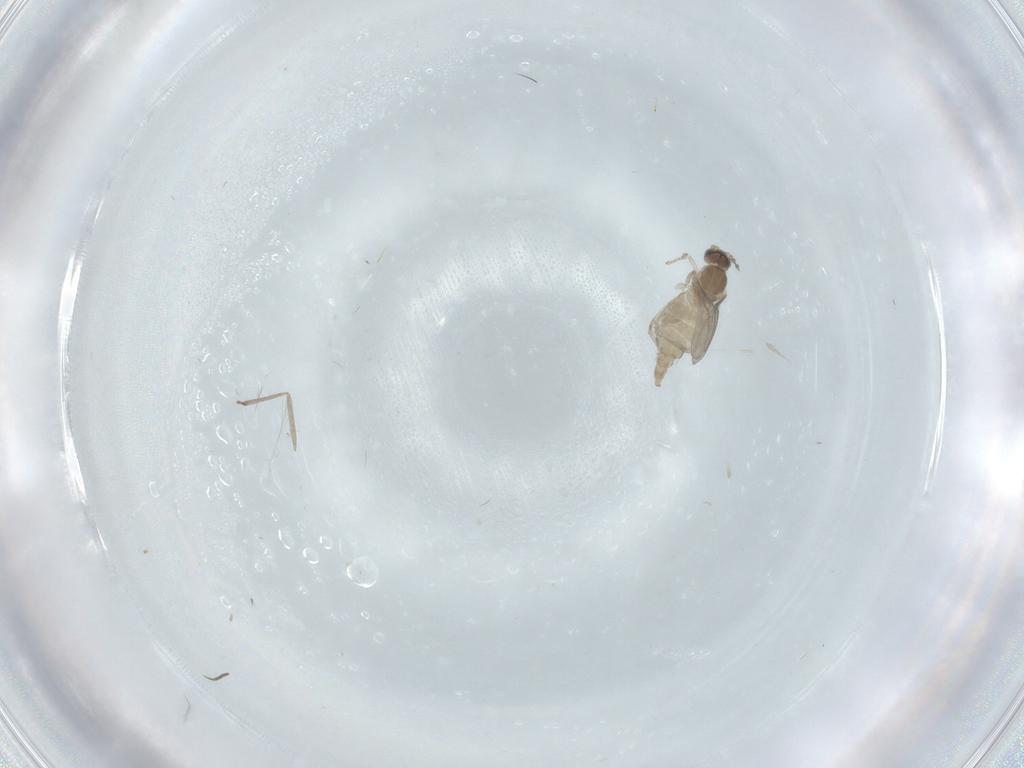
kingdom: Animalia
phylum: Arthropoda
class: Insecta
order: Diptera
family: Cecidomyiidae
